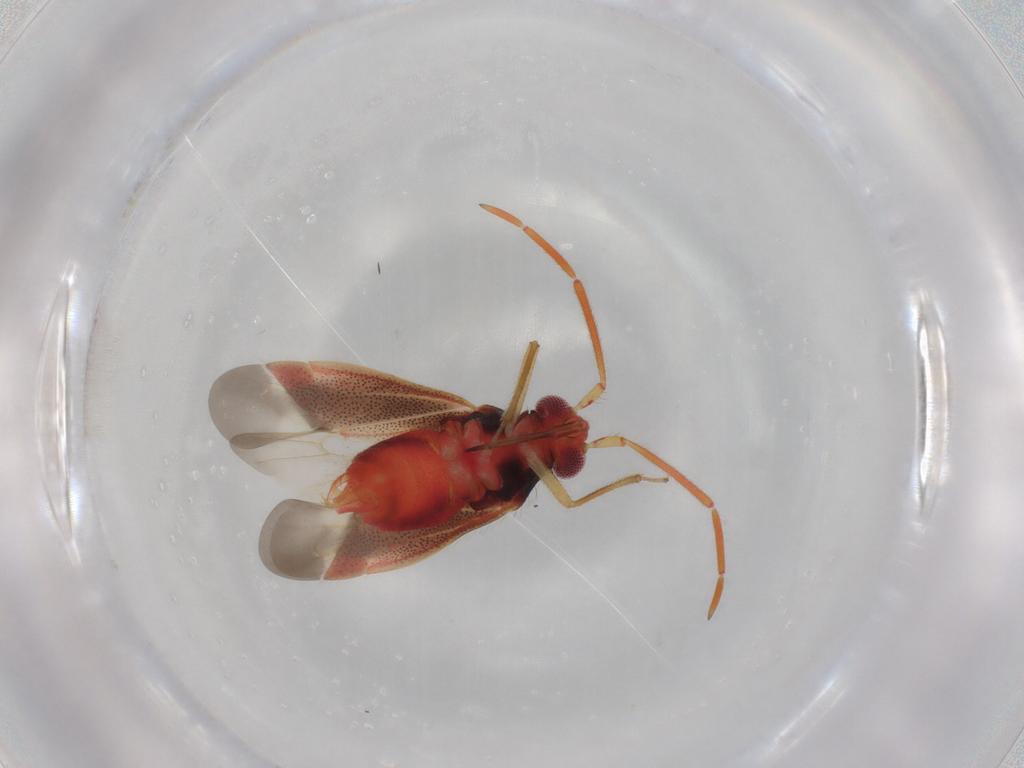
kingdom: Animalia
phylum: Arthropoda
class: Insecta
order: Hemiptera
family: Miridae
